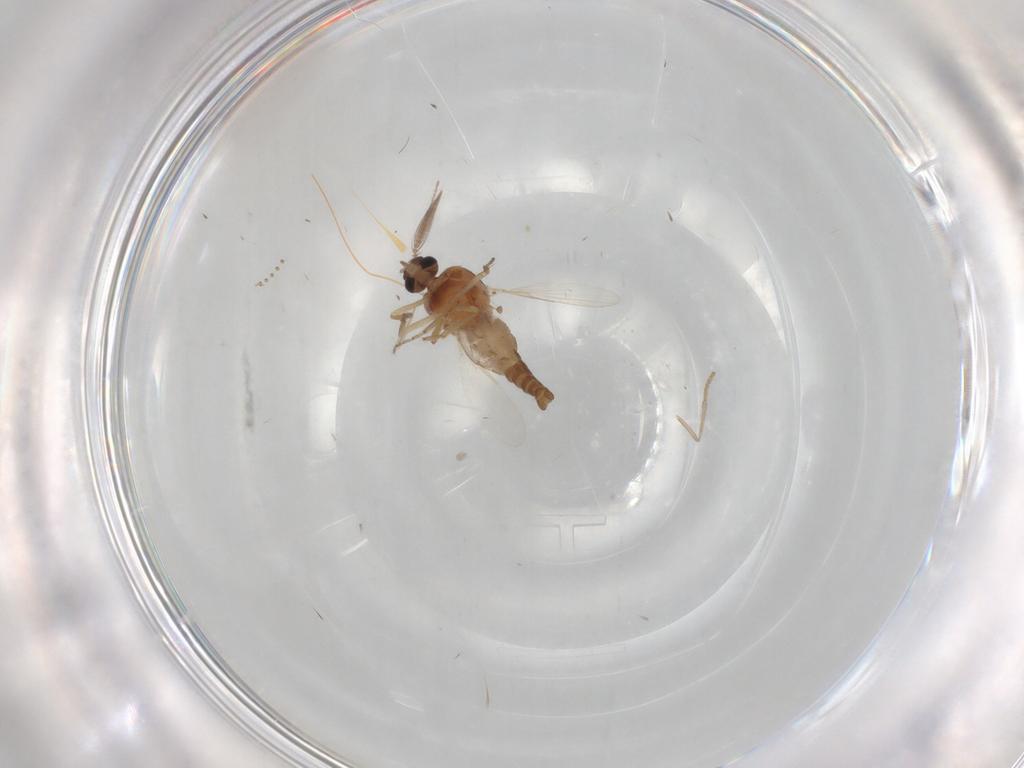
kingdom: Animalia
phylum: Arthropoda
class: Insecta
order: Diptera
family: Ceratopogonidae
